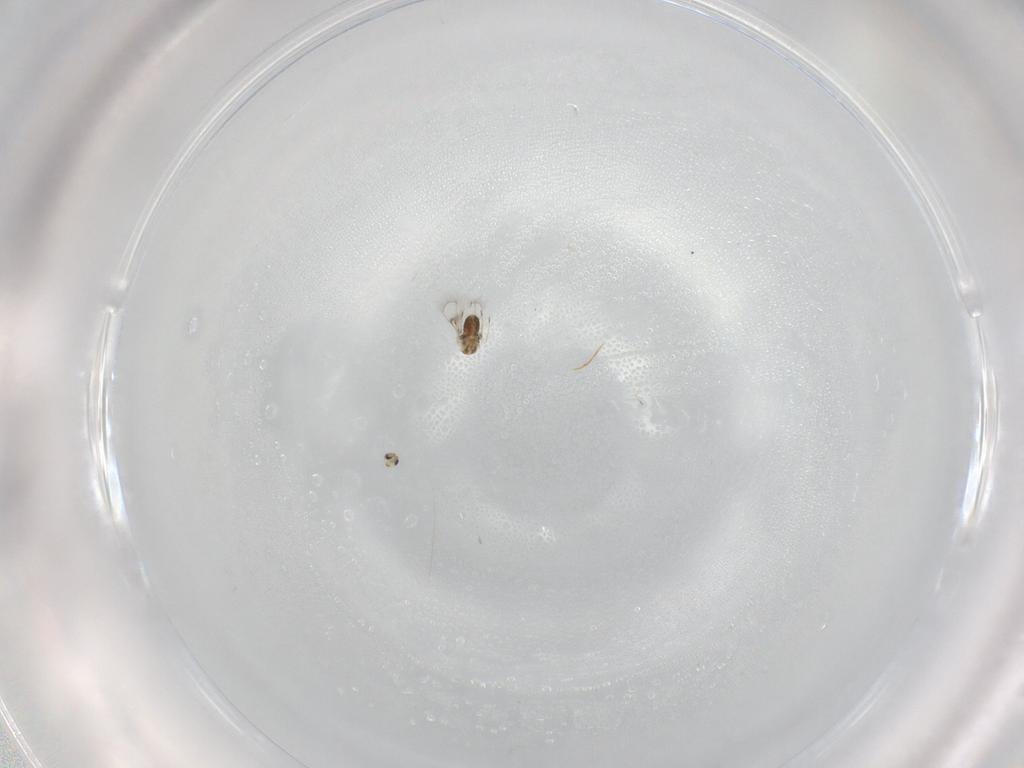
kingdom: Animalia
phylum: Arthropoda
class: Insecta
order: Hymenoptera
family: Trichogrammatidae
